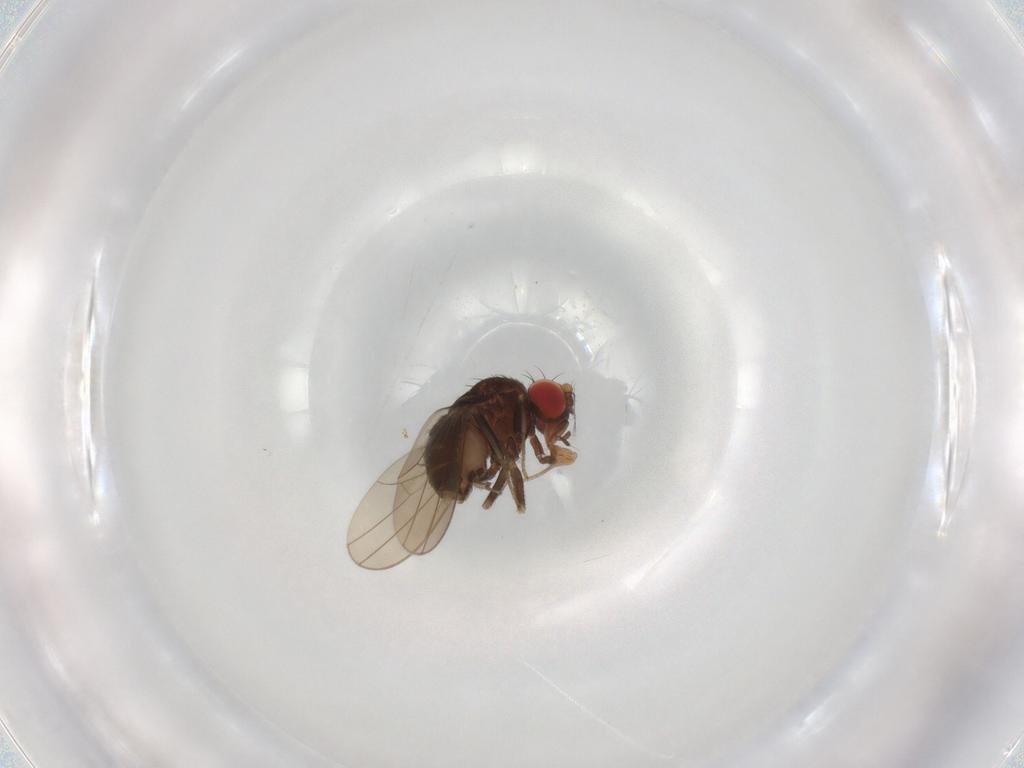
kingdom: Animalia
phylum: Arthropoda
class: Insecta
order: Diptera
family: Drosophilidae
